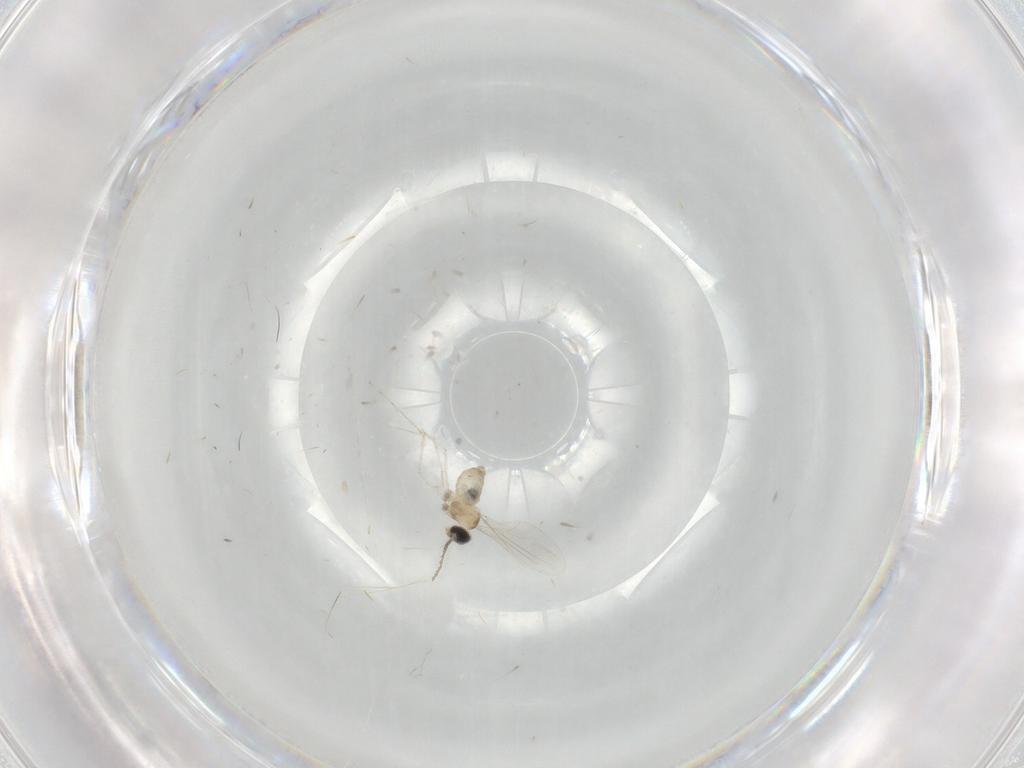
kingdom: Animalia
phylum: Arthropoda
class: Insecta
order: Diptera
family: Cecidomyiidae
